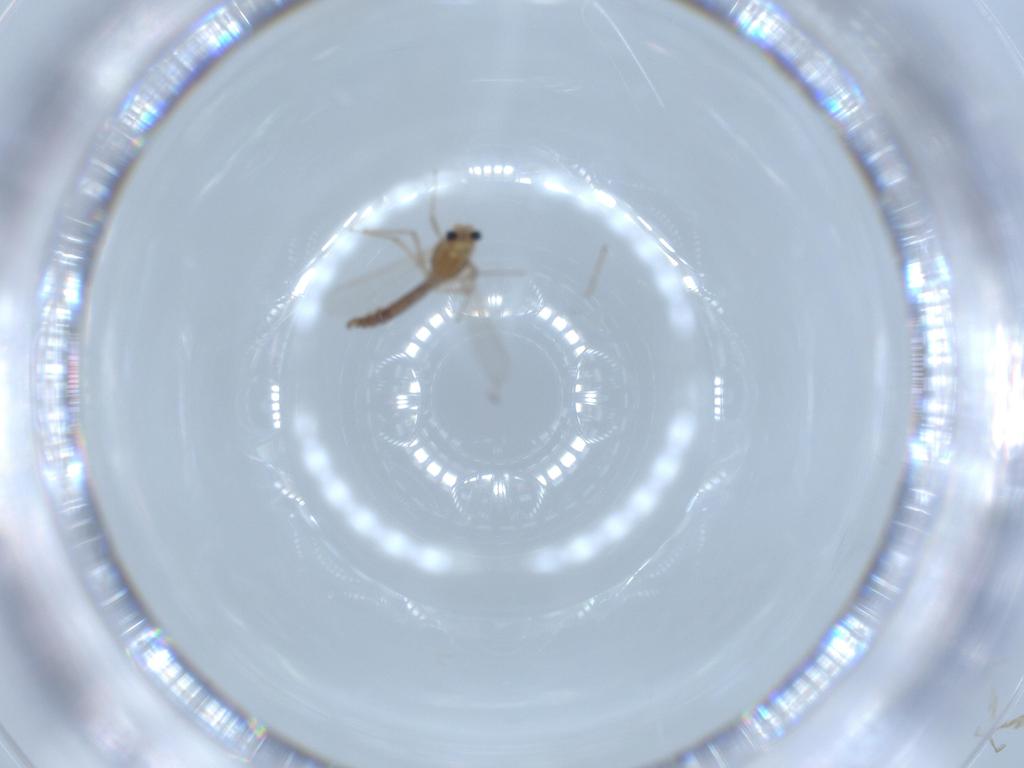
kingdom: Animalia
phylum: Arthropoda
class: Insecta
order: Diptera
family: Chironomidae
